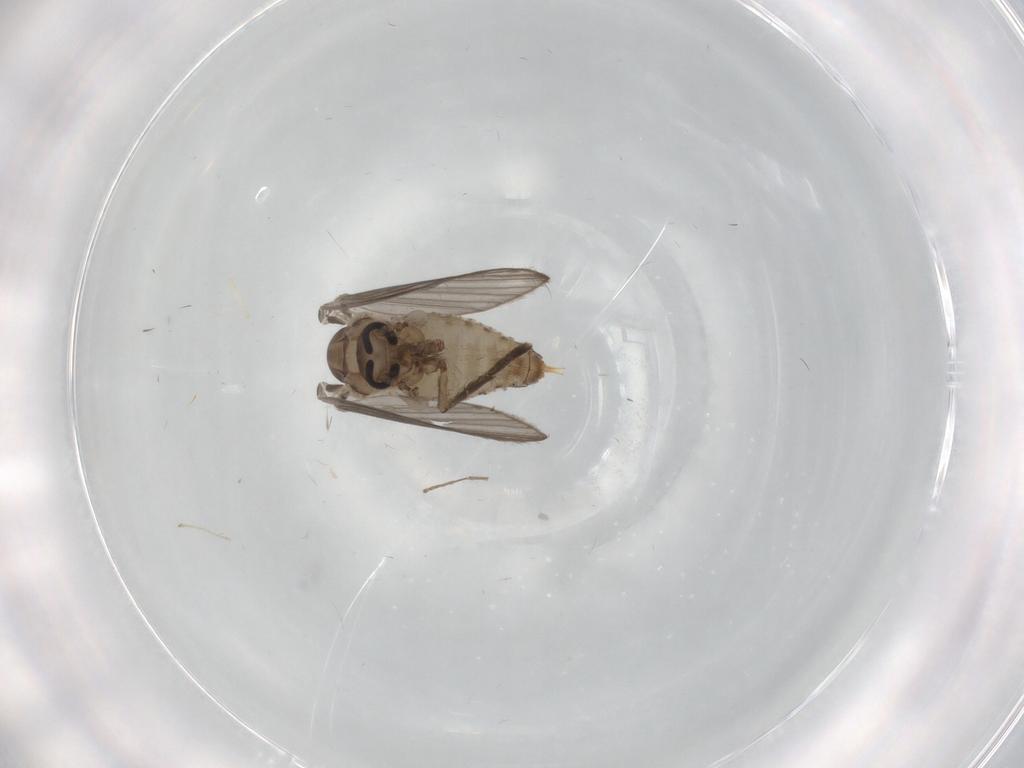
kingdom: Animalia
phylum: Arthropoda
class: Insecta
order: Diptera
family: Psychodidae
